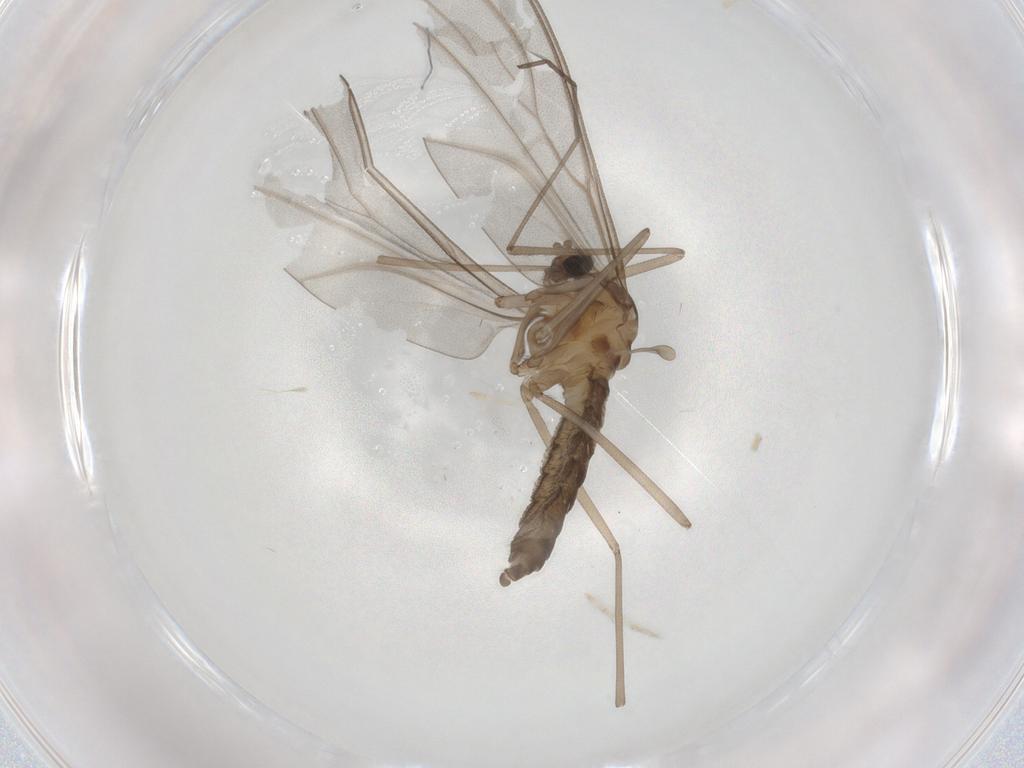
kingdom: Animalia
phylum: Arthropoda
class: Insecta
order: Diptera
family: Cecidomyiidae
